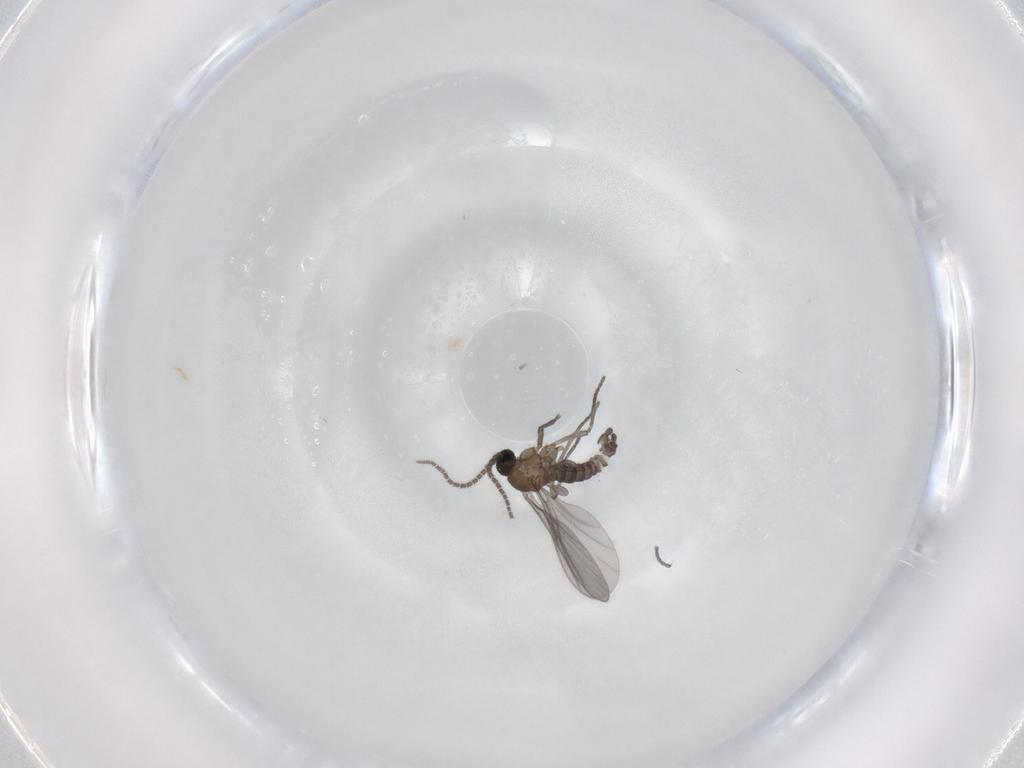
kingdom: Animalia
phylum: Arthropoda
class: Insecta
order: Diptera
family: Sciaridae
